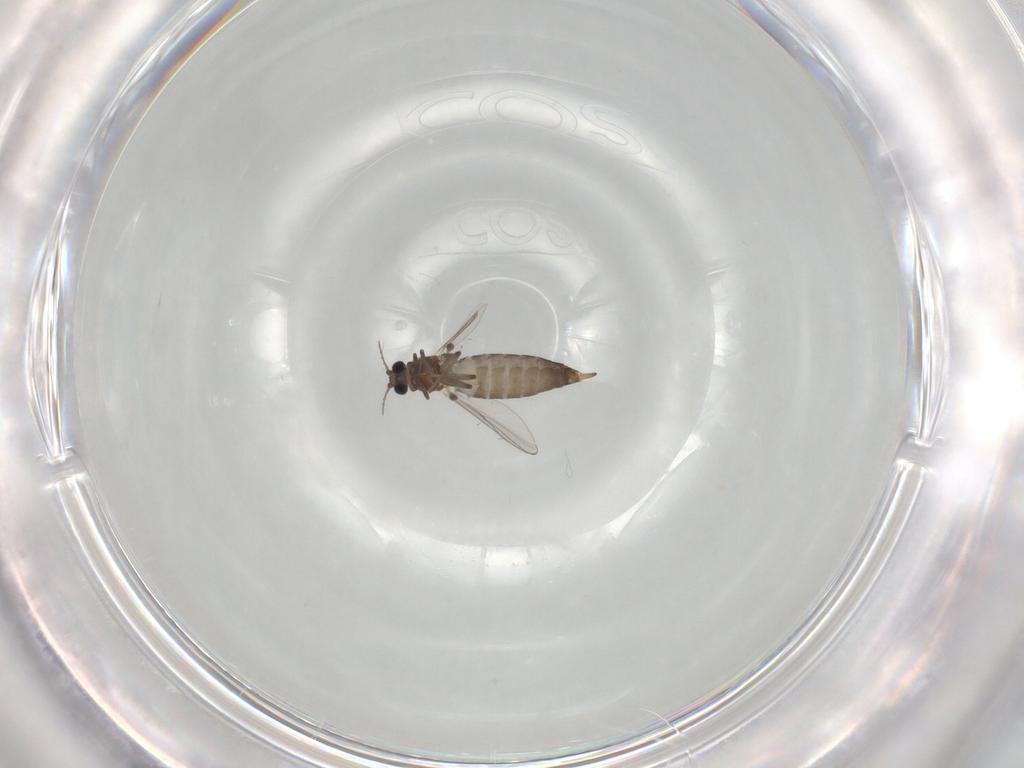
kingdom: Animalia
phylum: Arthropoda
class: Insecta
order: Diptera
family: Chironomidae
